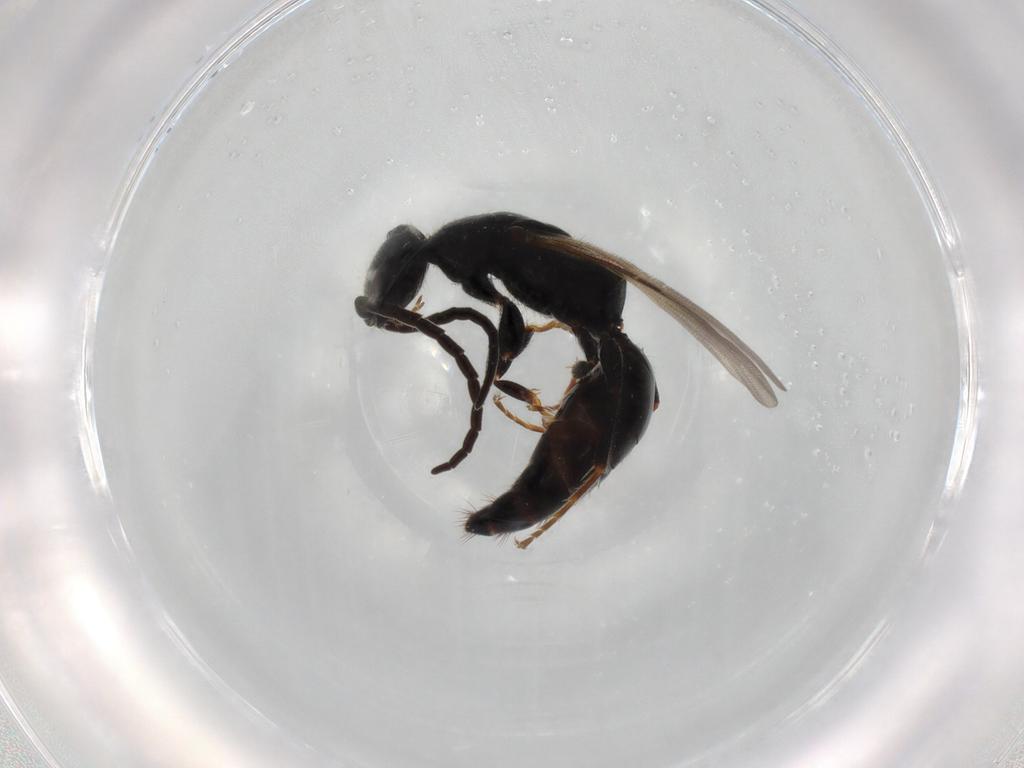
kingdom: Animalia
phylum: Arthropoda
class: Insecta
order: Hymenoptera
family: Bethylidae
